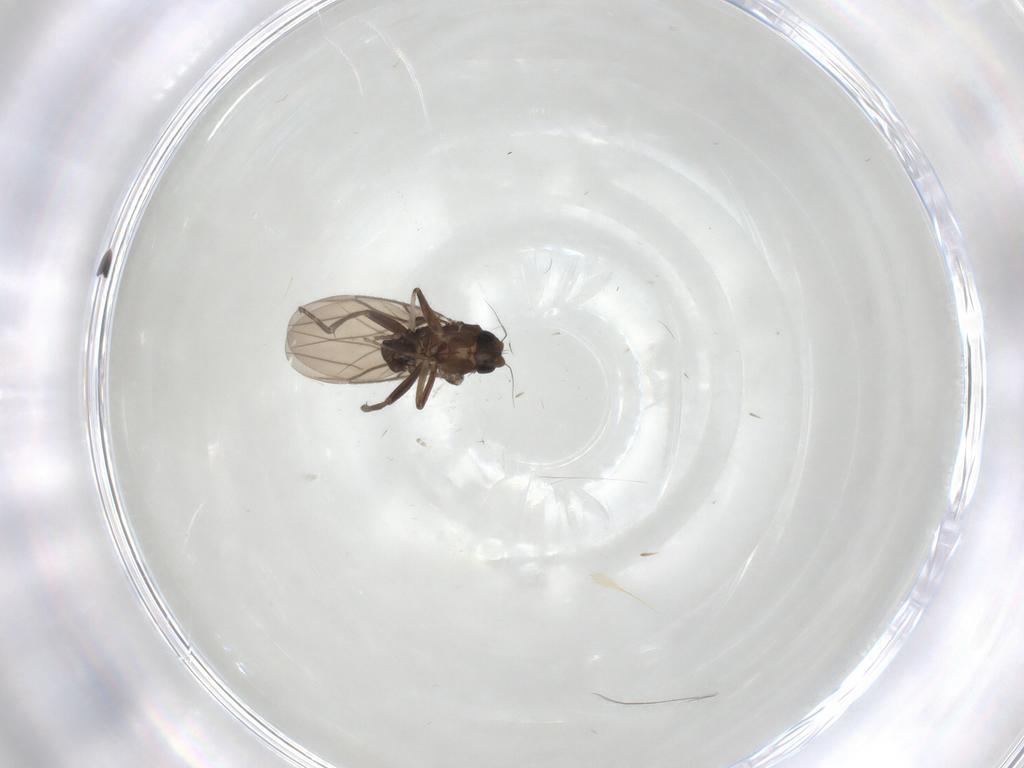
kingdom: Animalia
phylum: Arthropoda
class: Insecta
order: Diptera
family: Phoridae
